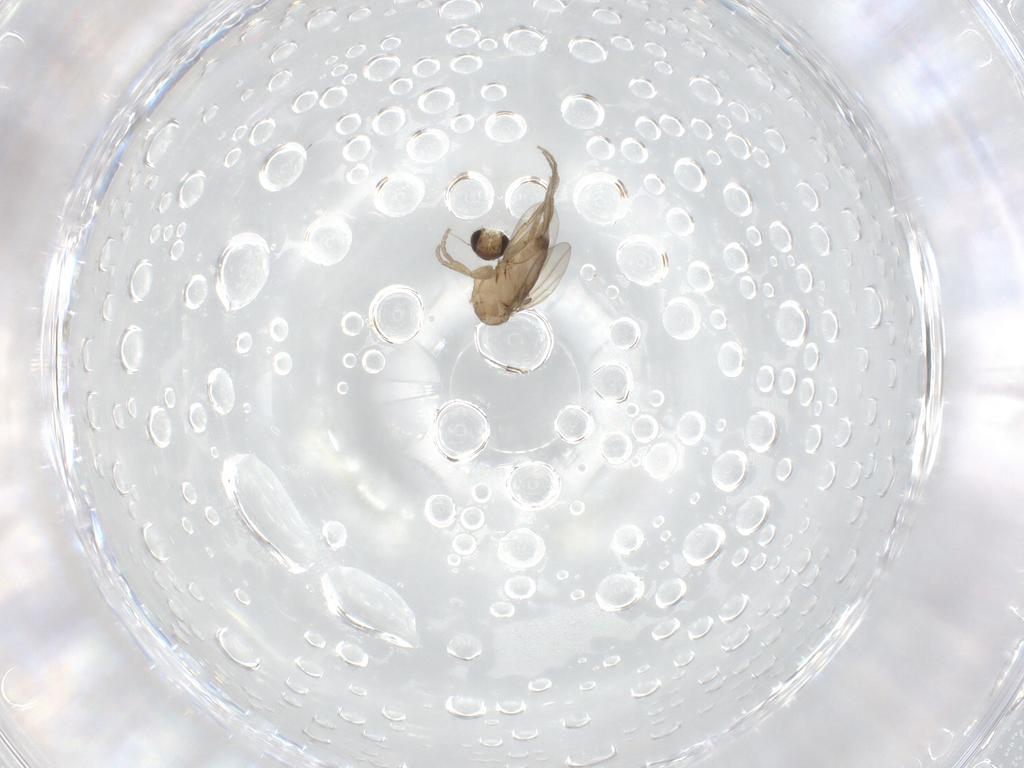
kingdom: Animalia
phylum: Arthropoda
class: Insecta
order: Diptera
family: Phoridae
